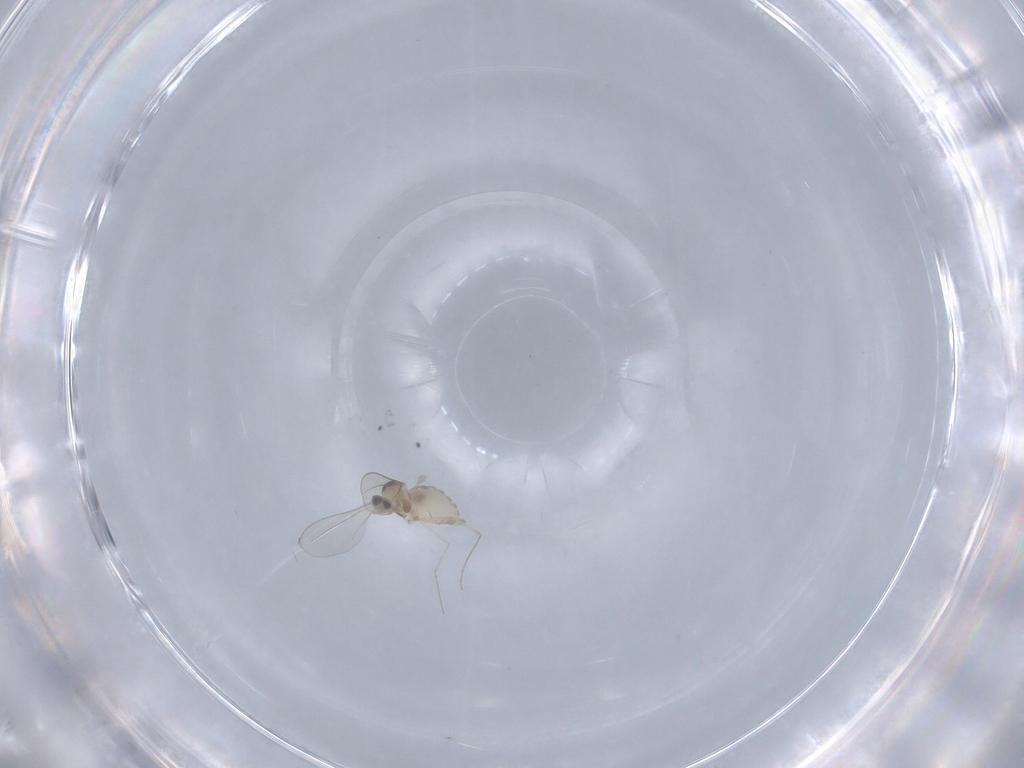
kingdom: Animalia
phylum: Arthropoda
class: Insecta
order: Diptera
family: Cecidomyiidae
